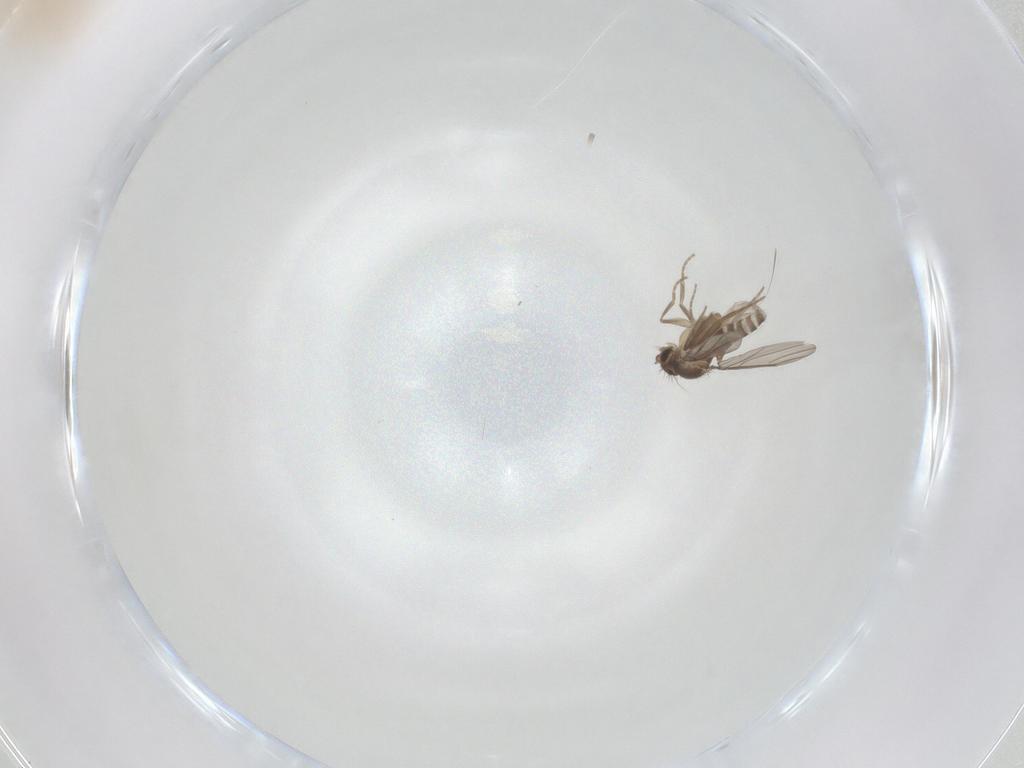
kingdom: Animalia
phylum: Arthropoda
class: Insecta
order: Diptera
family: Phoridae
